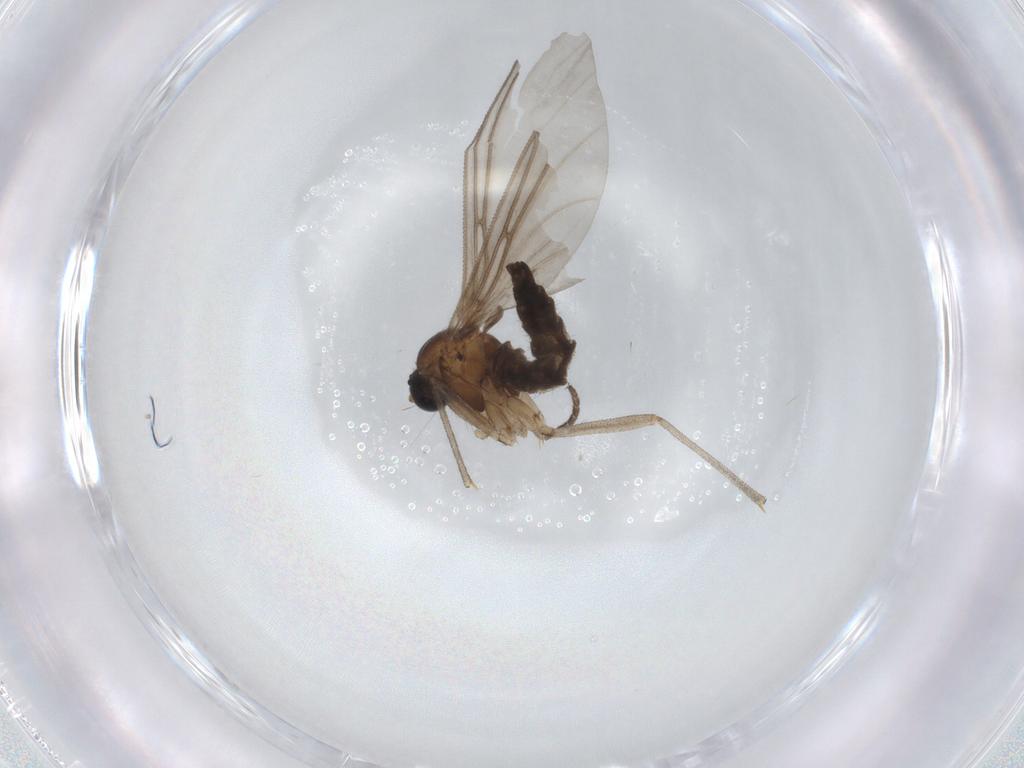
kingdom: Animalia
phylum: Arthropoda
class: Insecta
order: Diptera
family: Sciaridae
